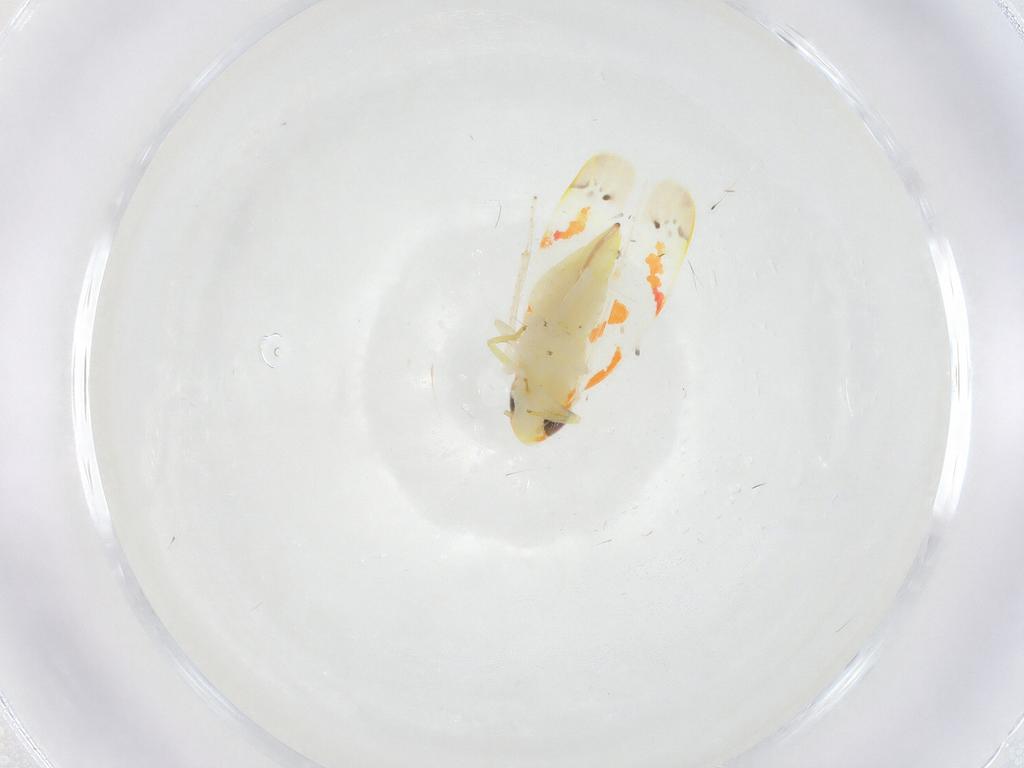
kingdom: Animalia
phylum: Arthropoda
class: Insecta
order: Hemiptera
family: Cicadellidae
